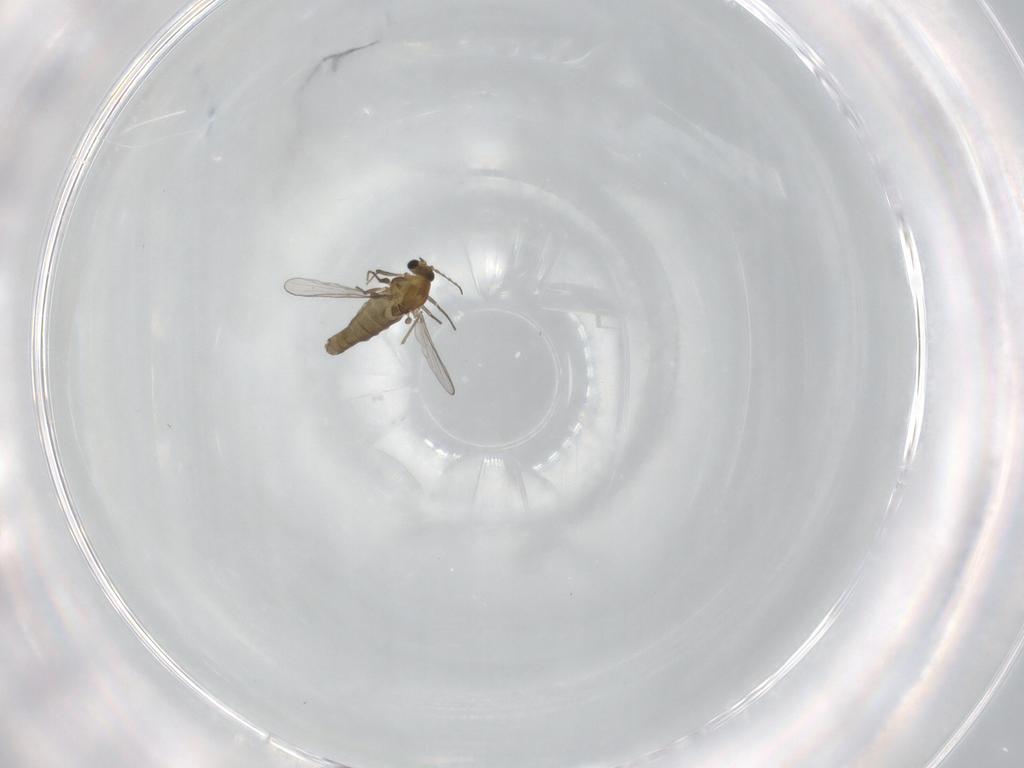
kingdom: Animalia
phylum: Arthropoda
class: Insecta
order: Diptera
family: Chironomidae
